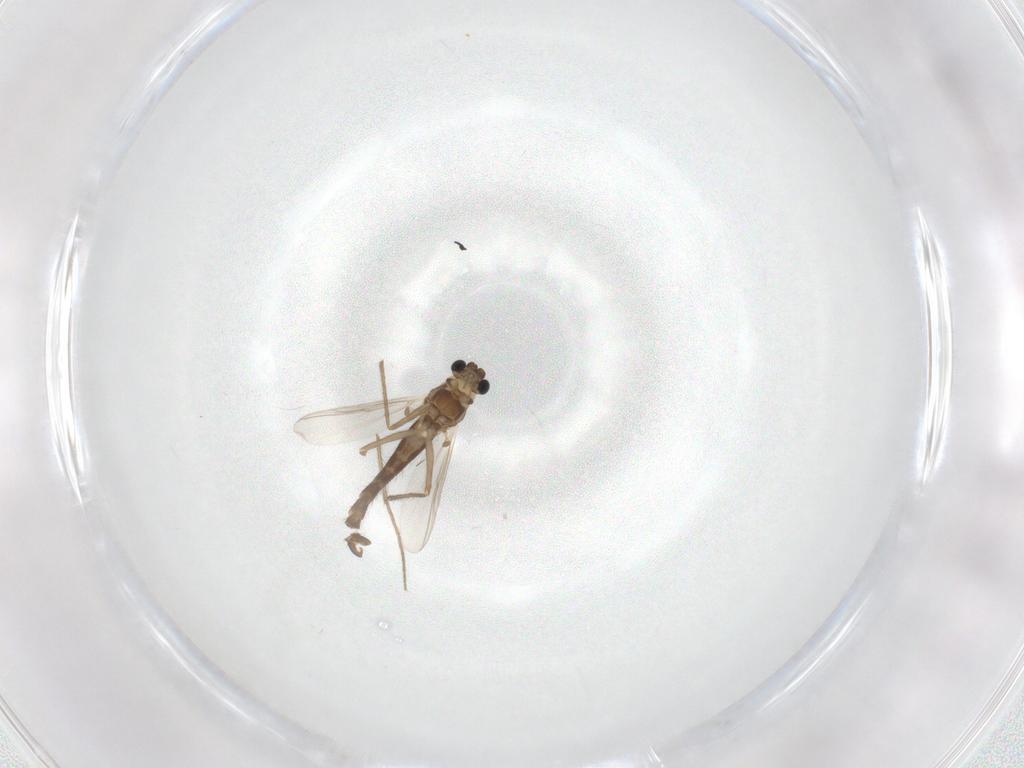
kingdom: Animalia
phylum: Arthropoda
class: Insecta
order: Diptera
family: Chironomidae
